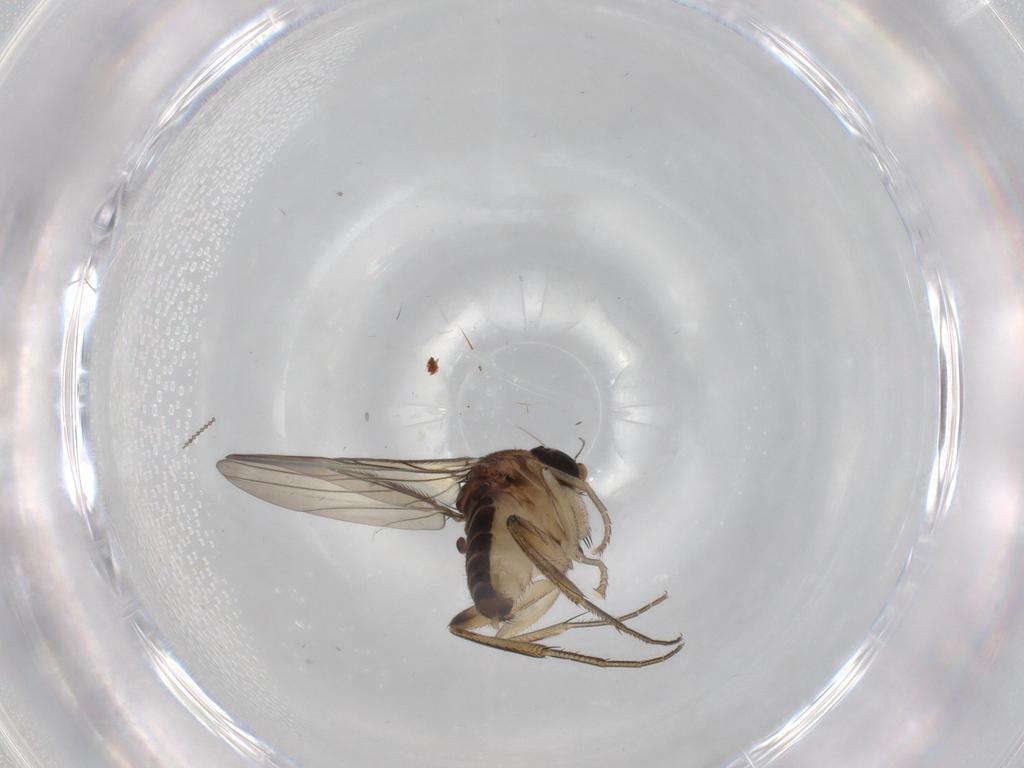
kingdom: Animalia
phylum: Arthropoda
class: Insecta
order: Diptera
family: Phoridae
